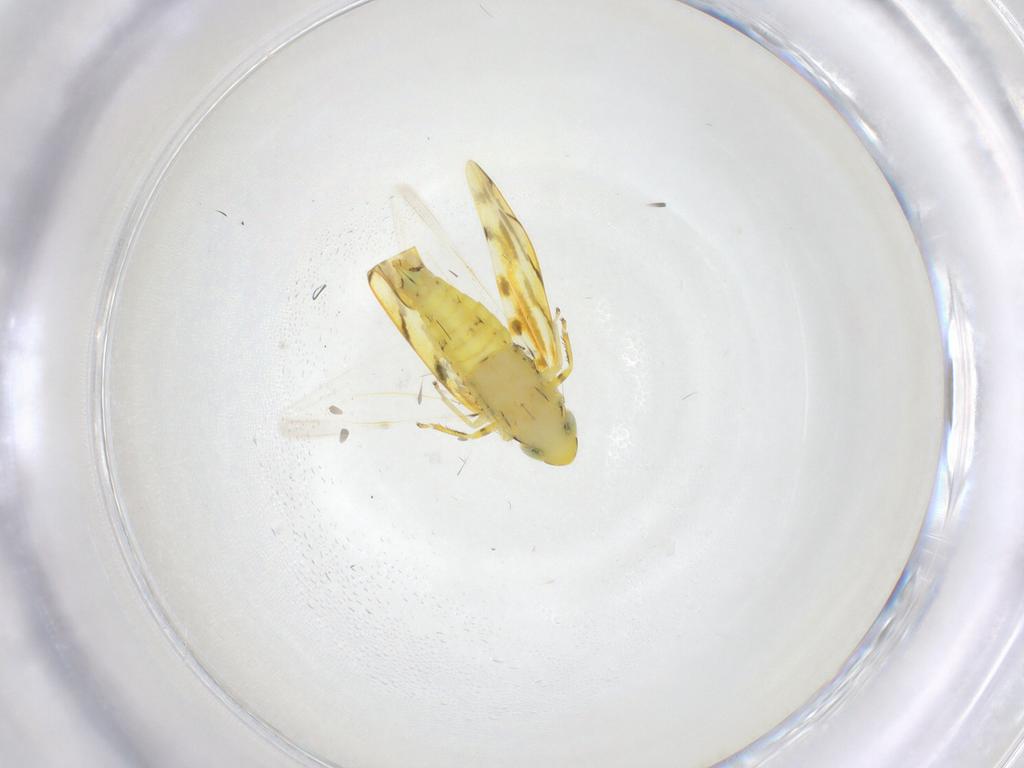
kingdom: Animalia
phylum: Arthropoda
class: Insecta
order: Hemiptera
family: Cicadellidae
